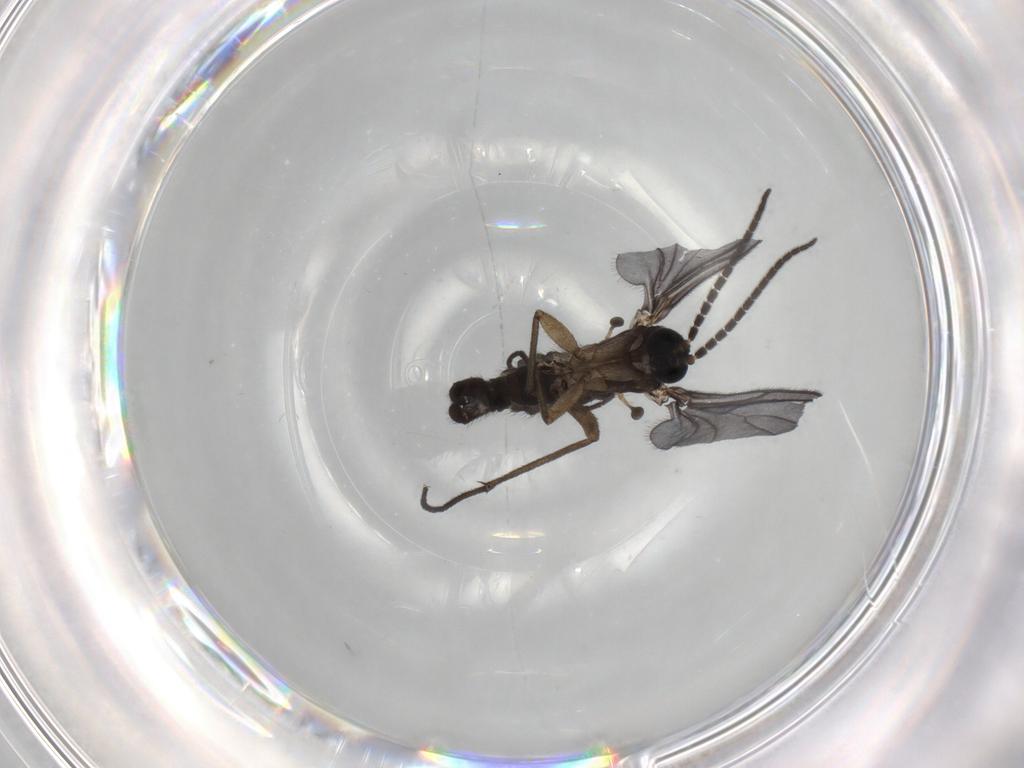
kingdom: Animalia
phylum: Arthropoda
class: Insecta
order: Diptera
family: Sciaridae
